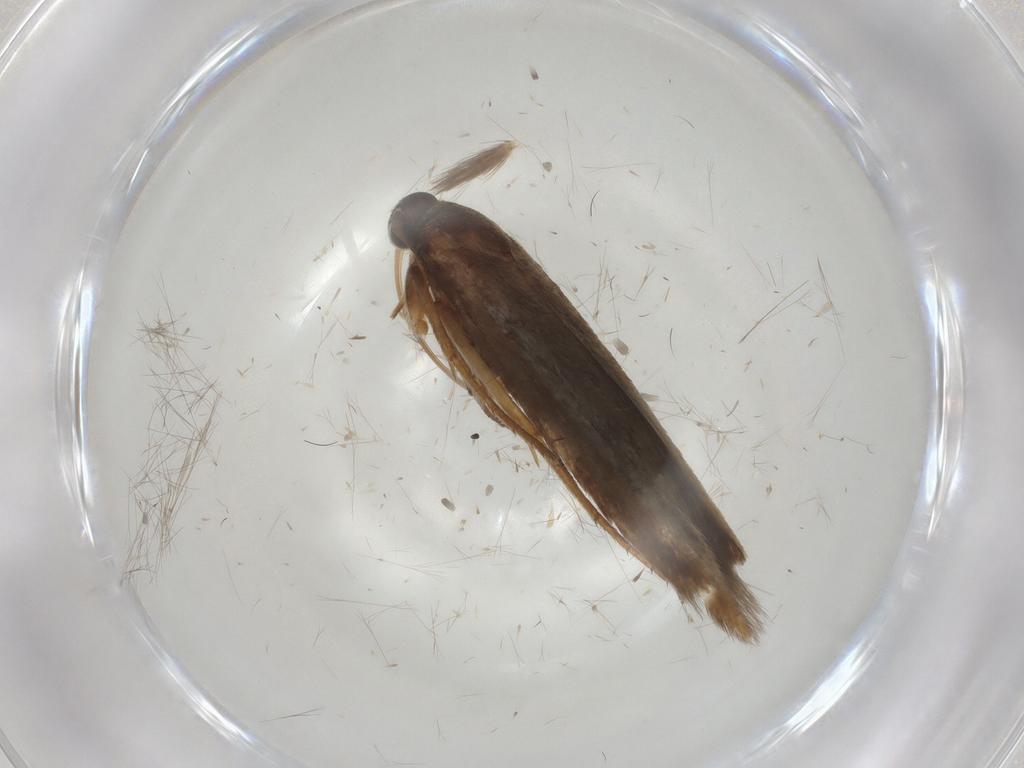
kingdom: Animalia
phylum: Arthropoda
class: Insecta
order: Lepidoptera
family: Scythrididae
